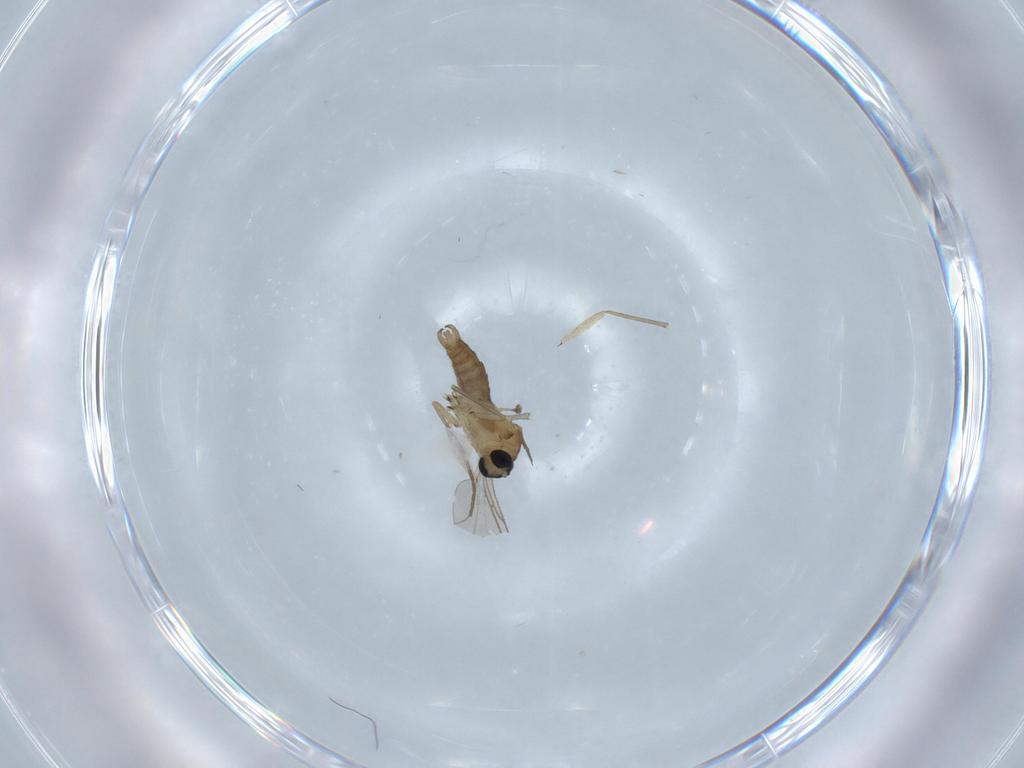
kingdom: Animalia
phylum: Arthropoda
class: Insecta
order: Diptera
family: Sciaridae
